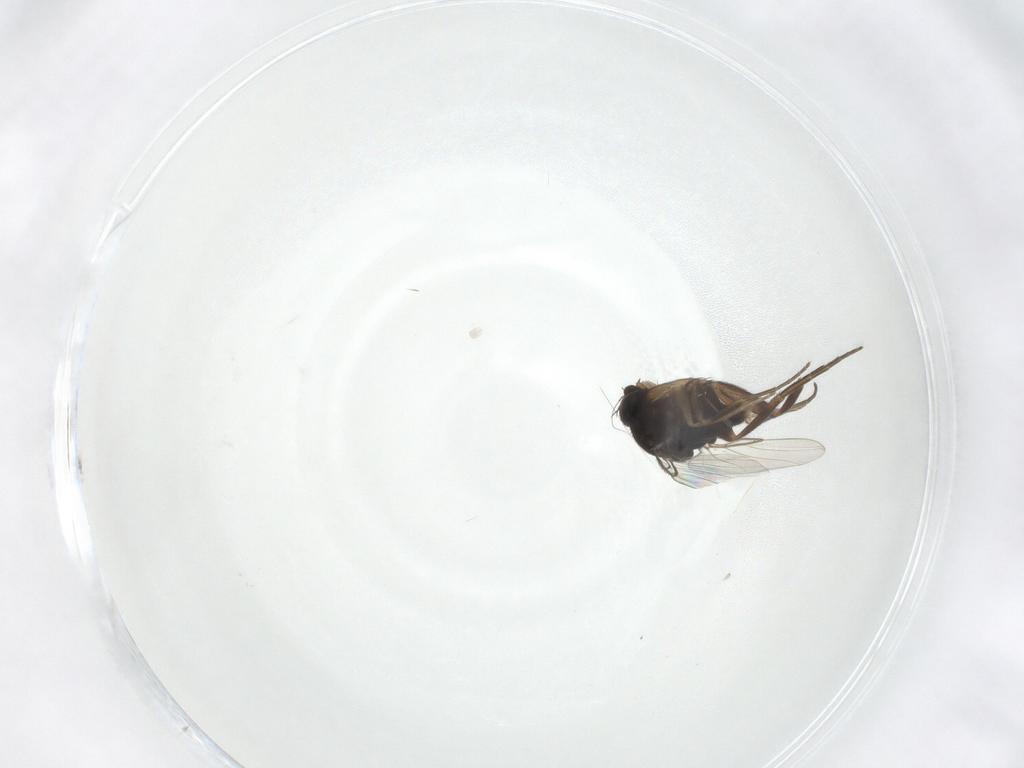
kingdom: Animalia
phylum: Arthropoda
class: Insecta
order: Diptera
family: Phoridae
